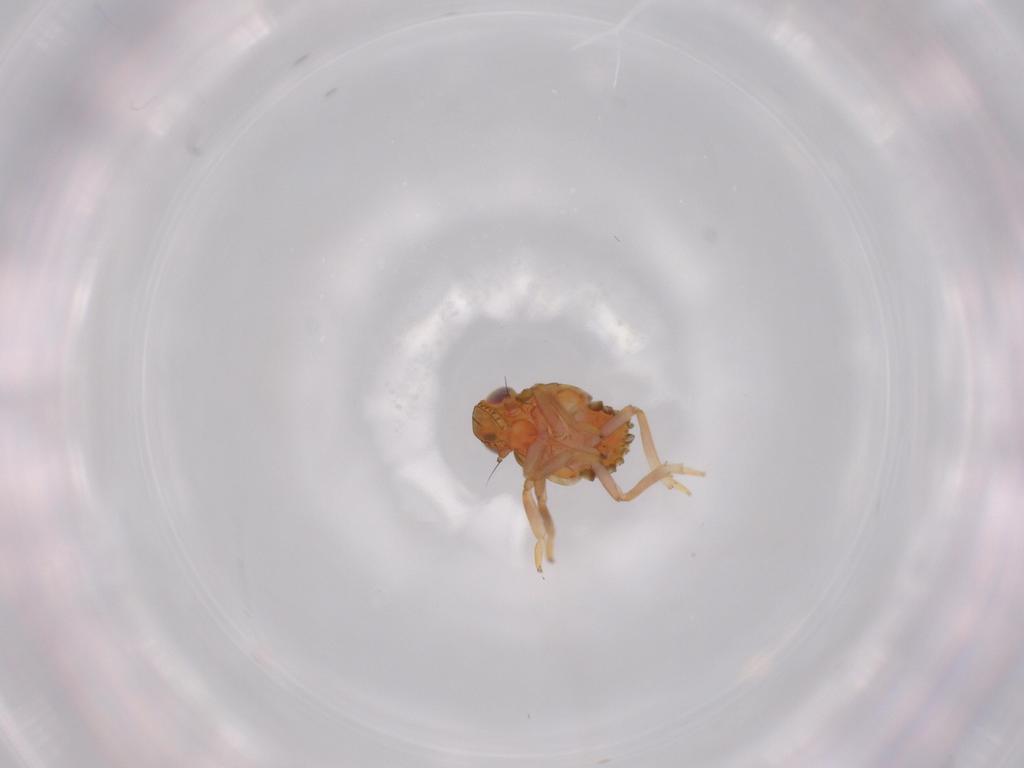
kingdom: Animalia
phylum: Arthropoda
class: Insecta
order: Hemiptera
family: Issidae
